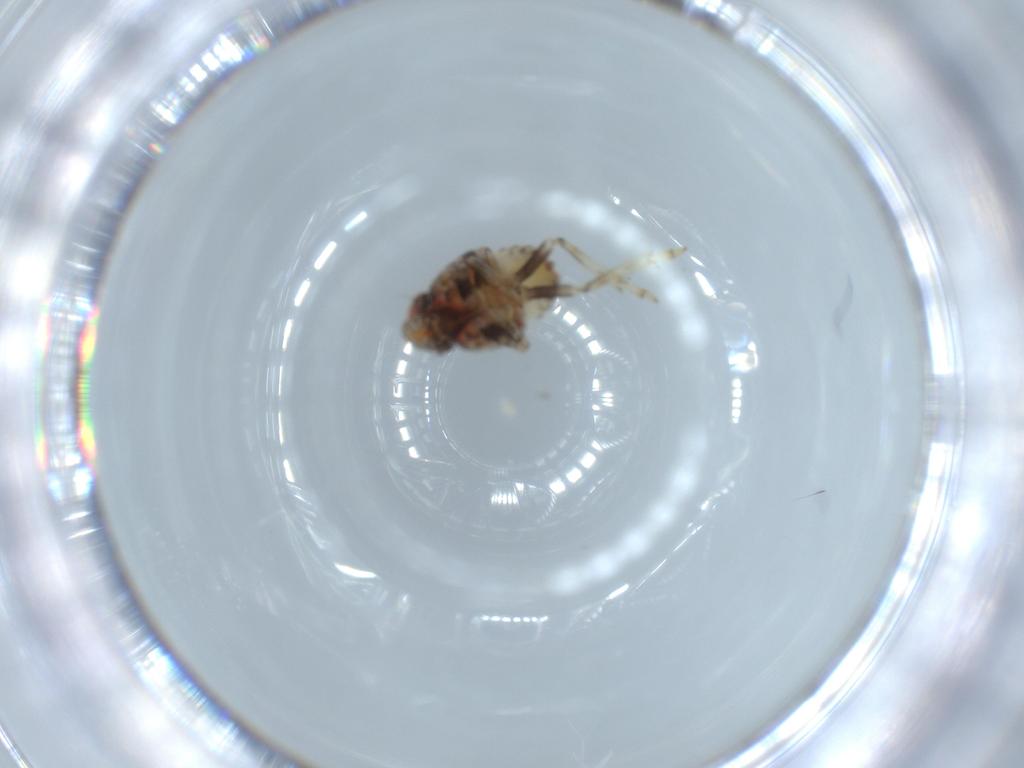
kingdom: Animalia
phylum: Arthropoda
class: Insecta
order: Hemiptera
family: Issidae
